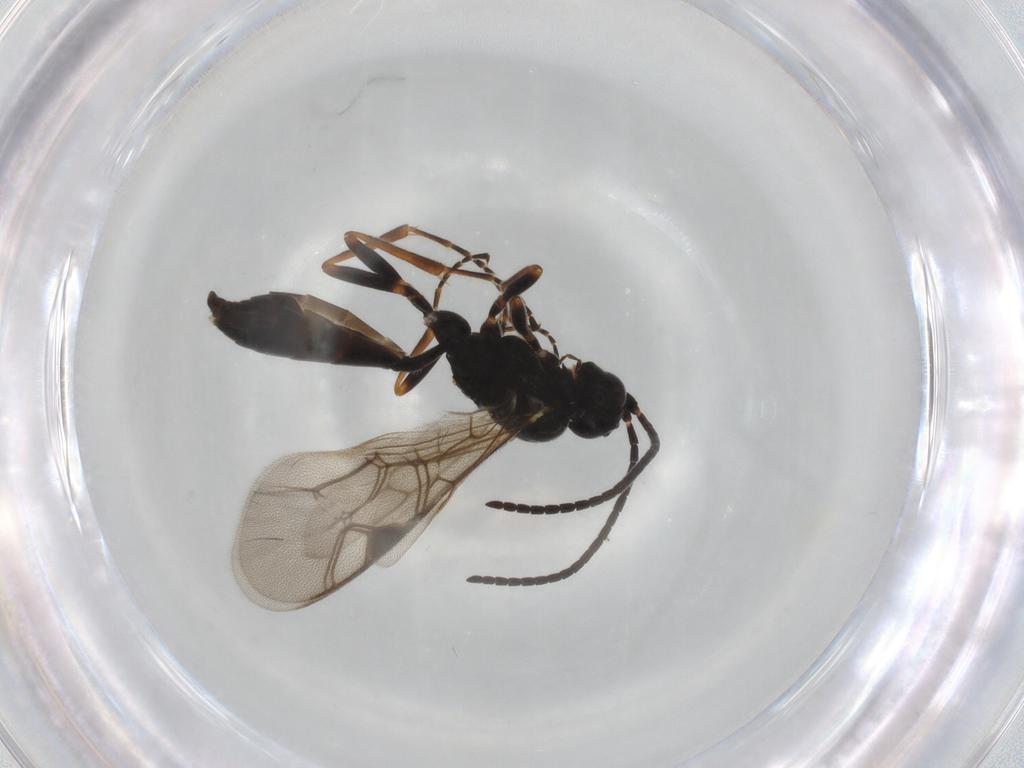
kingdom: Animalia
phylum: Arthropoda
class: Insecta
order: Hymenoptera
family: Ichneumonidae
